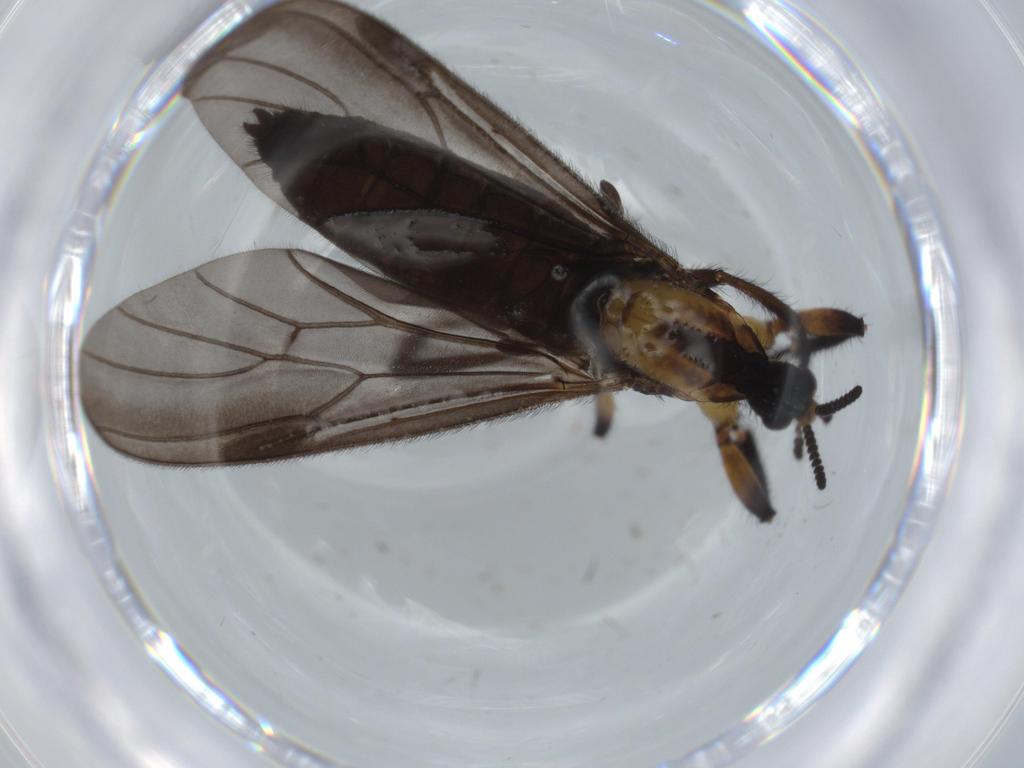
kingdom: Animalia
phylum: Arthropoda
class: Insecta
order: Diptera
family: Bibionidae
